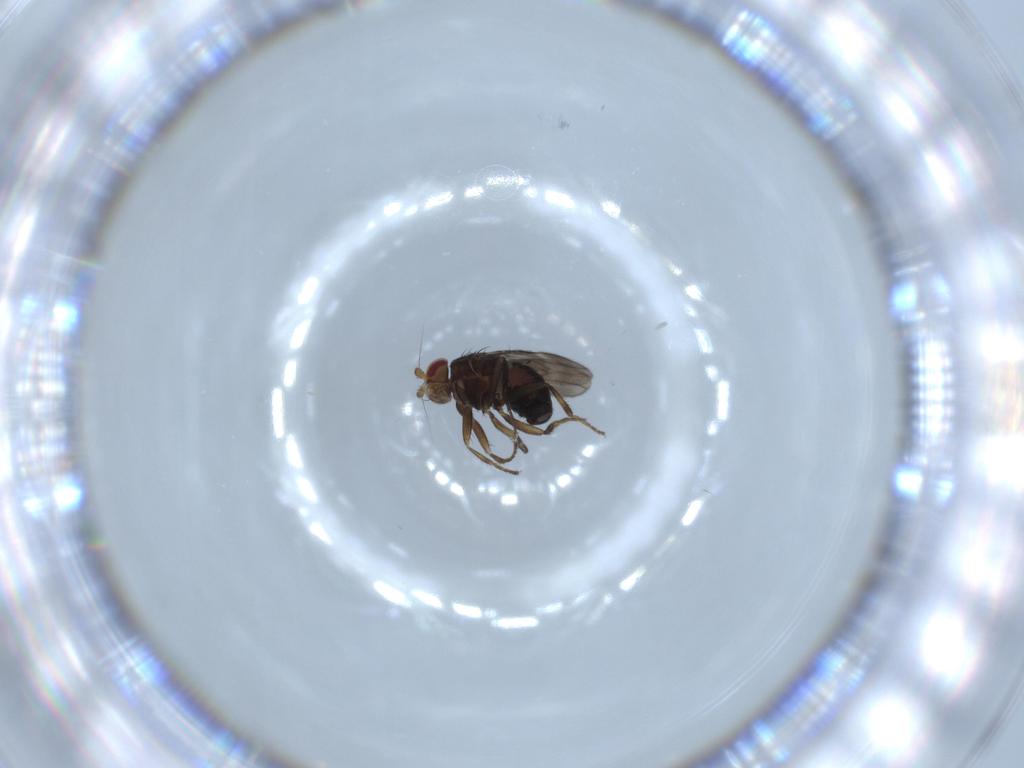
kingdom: Animalia
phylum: Arthropoda
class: Insecta
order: Diptera
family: Sphaeroceridae
